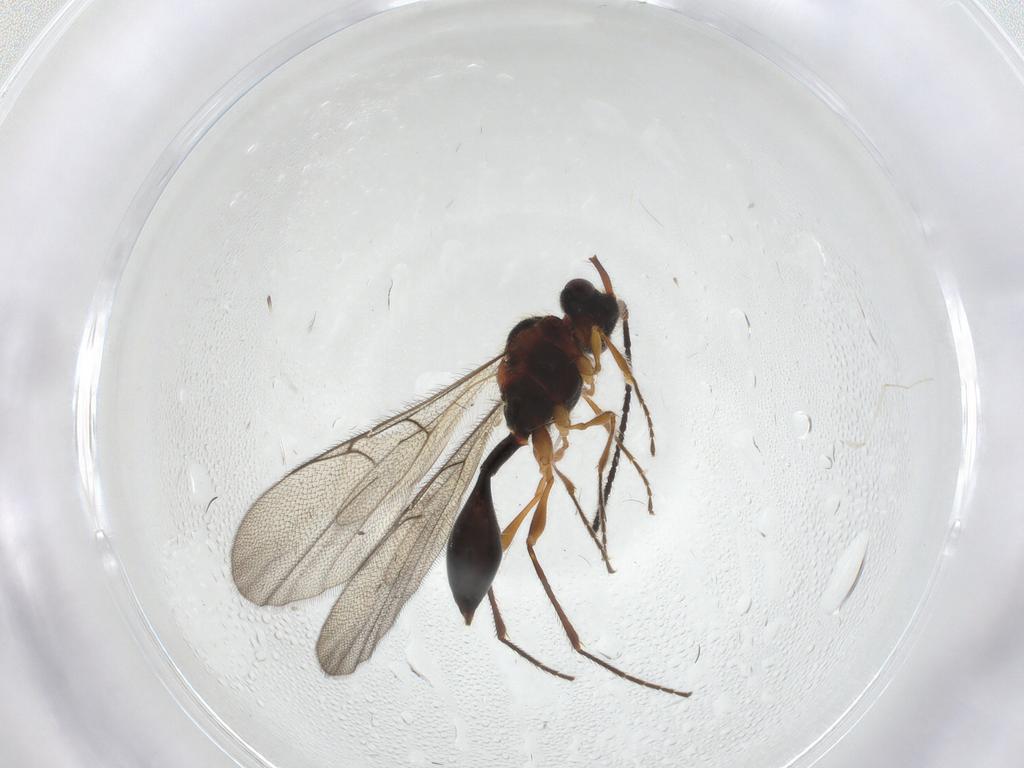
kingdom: Animalia
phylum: Arthropoda
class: Insecta
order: Hymenoptera
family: Diapriidae
